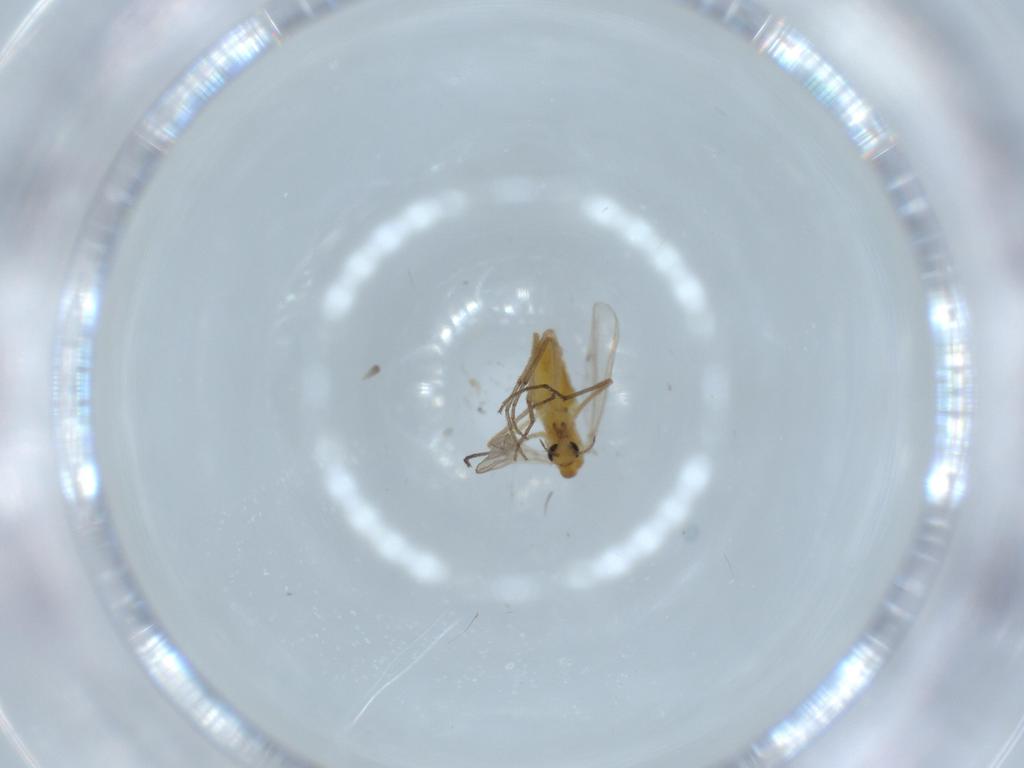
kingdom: Animalia
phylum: Arthropoda
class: Insecta
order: Diptera
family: Chironomidae
